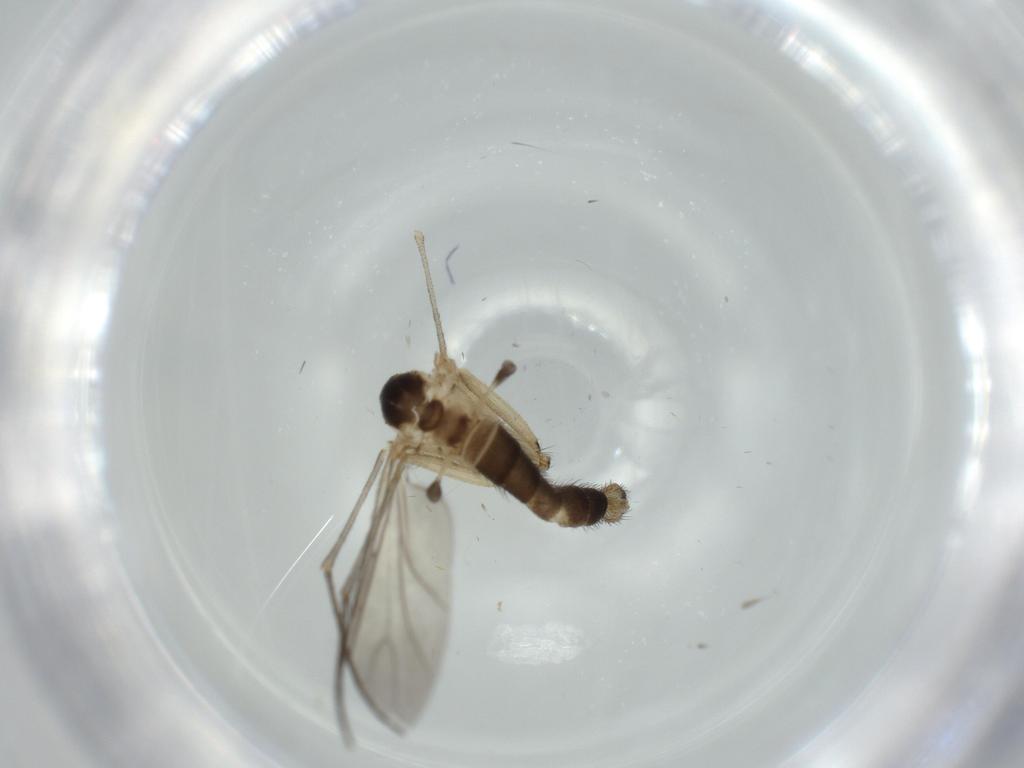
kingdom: Animalia
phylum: Arthropoda
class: Insecta
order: Diptera
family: Sciaridae
